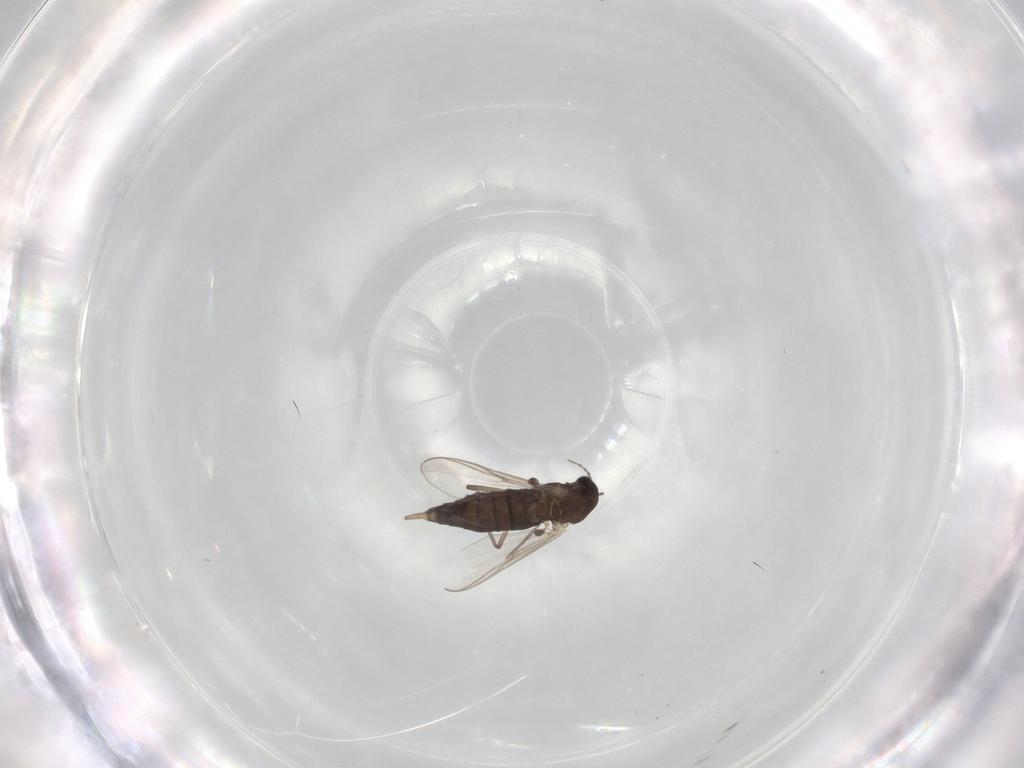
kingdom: Animalia
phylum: Arthropoda
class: Insecta
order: Diptera
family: Chironomidae
